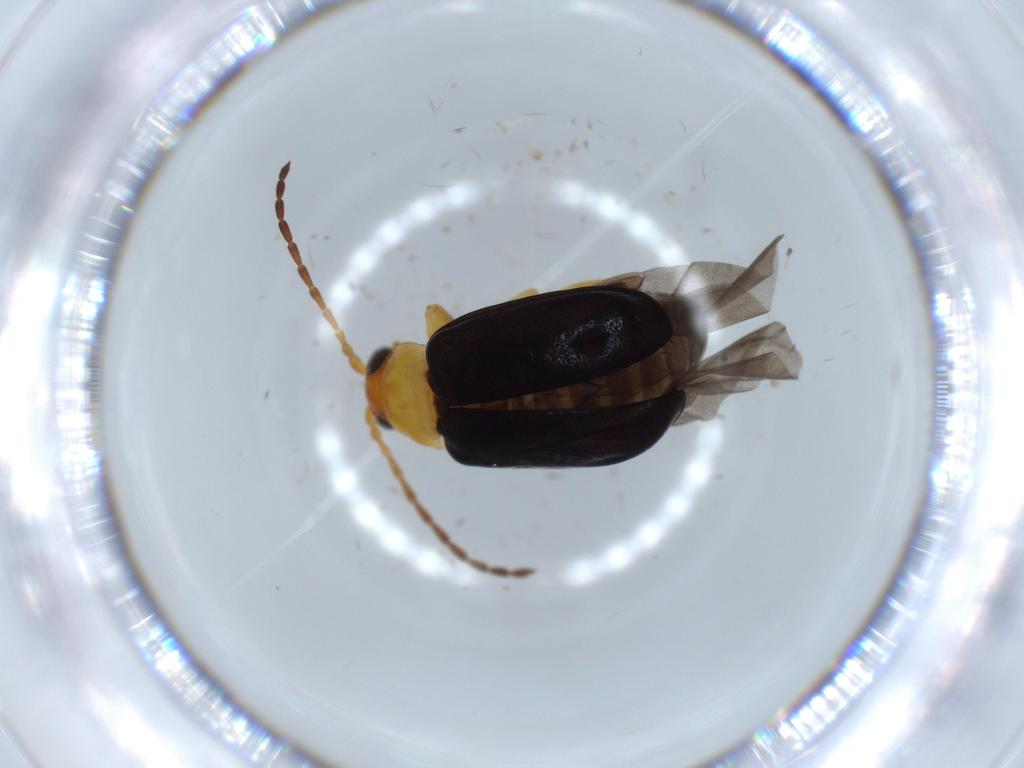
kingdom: Animalia
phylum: Arthropoda
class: Insecta
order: Coleoptera
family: Chrysomelidae
